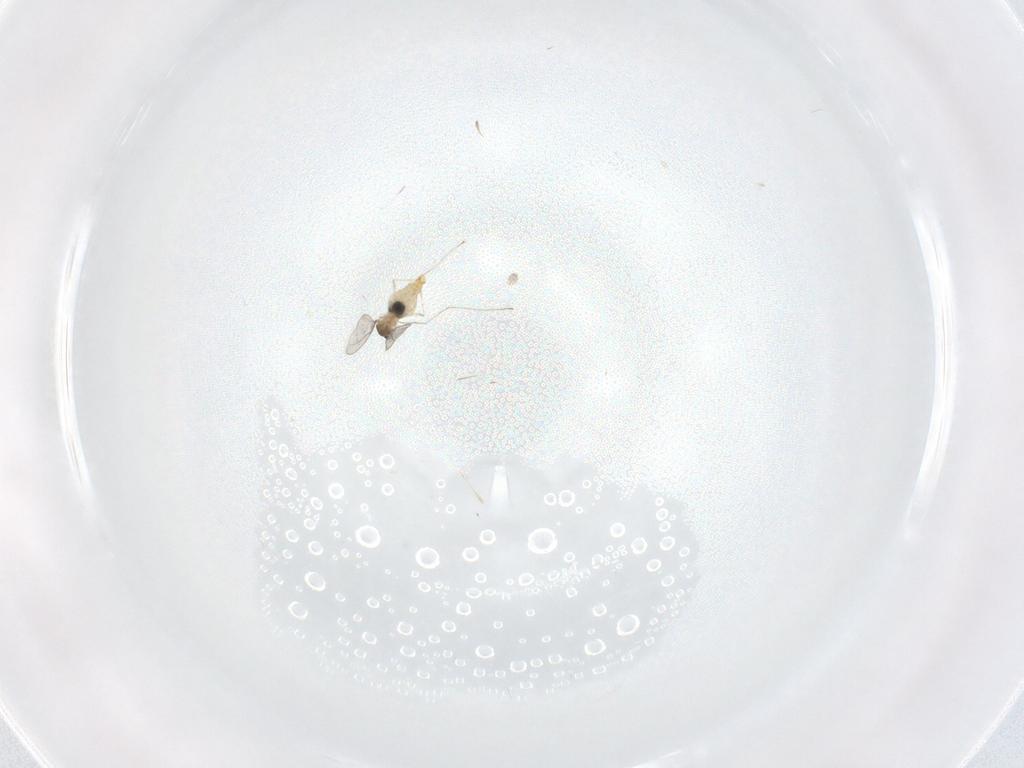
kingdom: Animalia
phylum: Arthropoda
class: Insecta
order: Diptera
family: Cecidomyiidae
